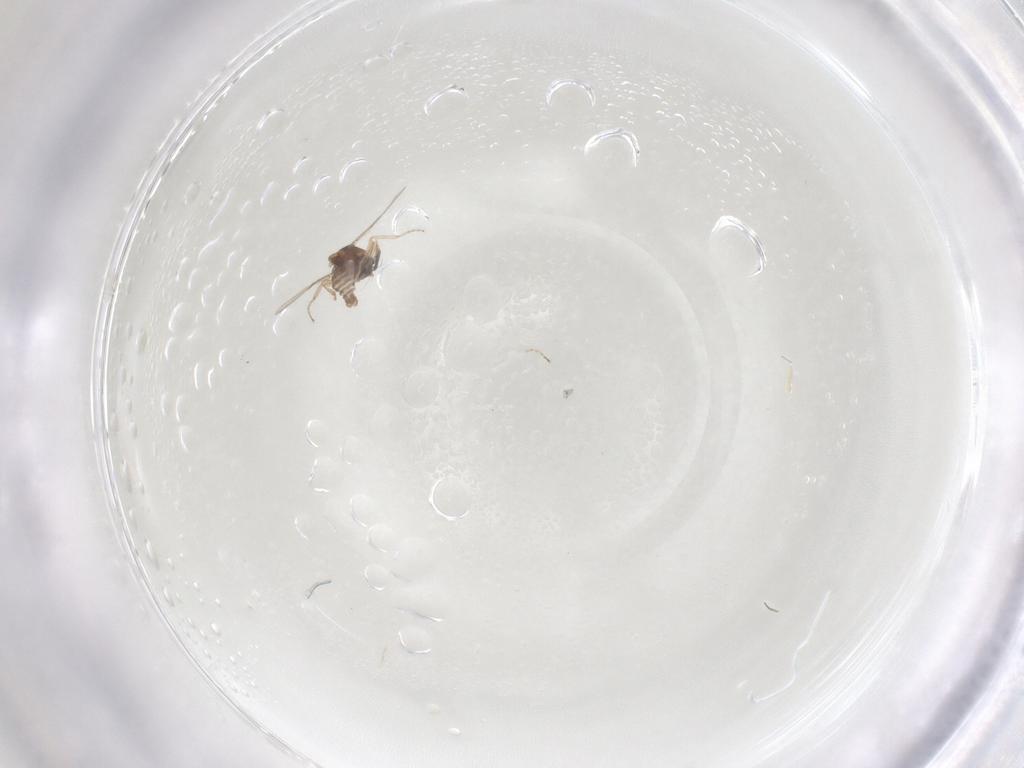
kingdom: Animalia
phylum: Arthropoda
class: Insecta
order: Diptera
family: Ceratopogonidae
